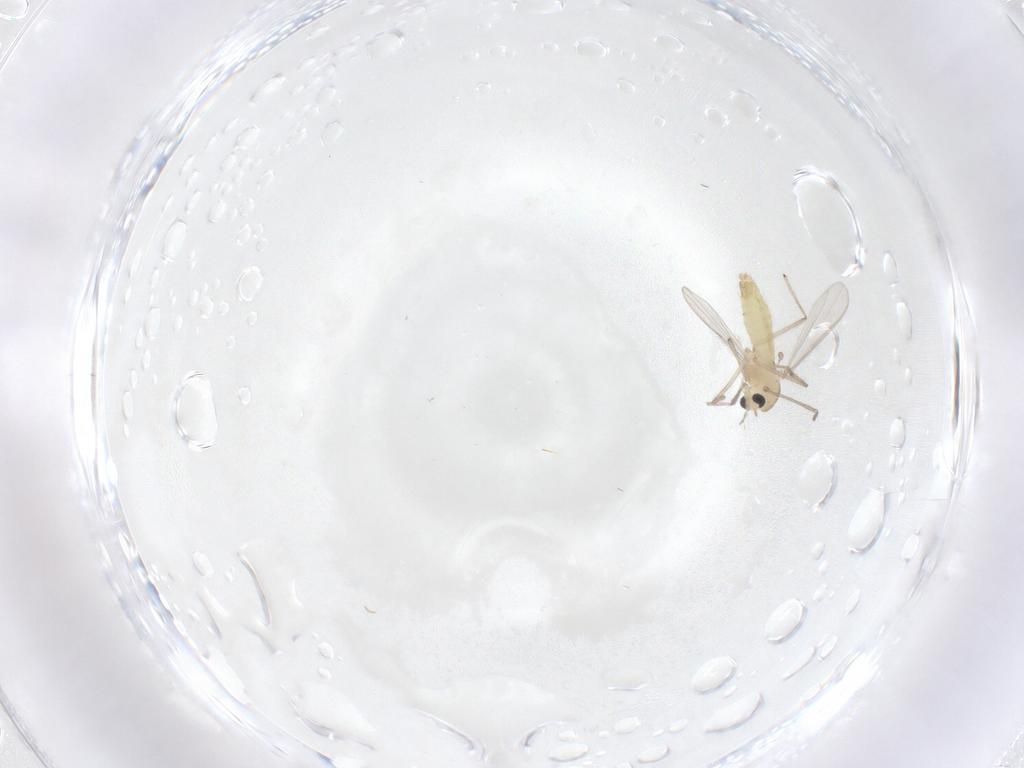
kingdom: Animalia
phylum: Arthropoda
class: Insecta
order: Diptera
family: Chironomidae
